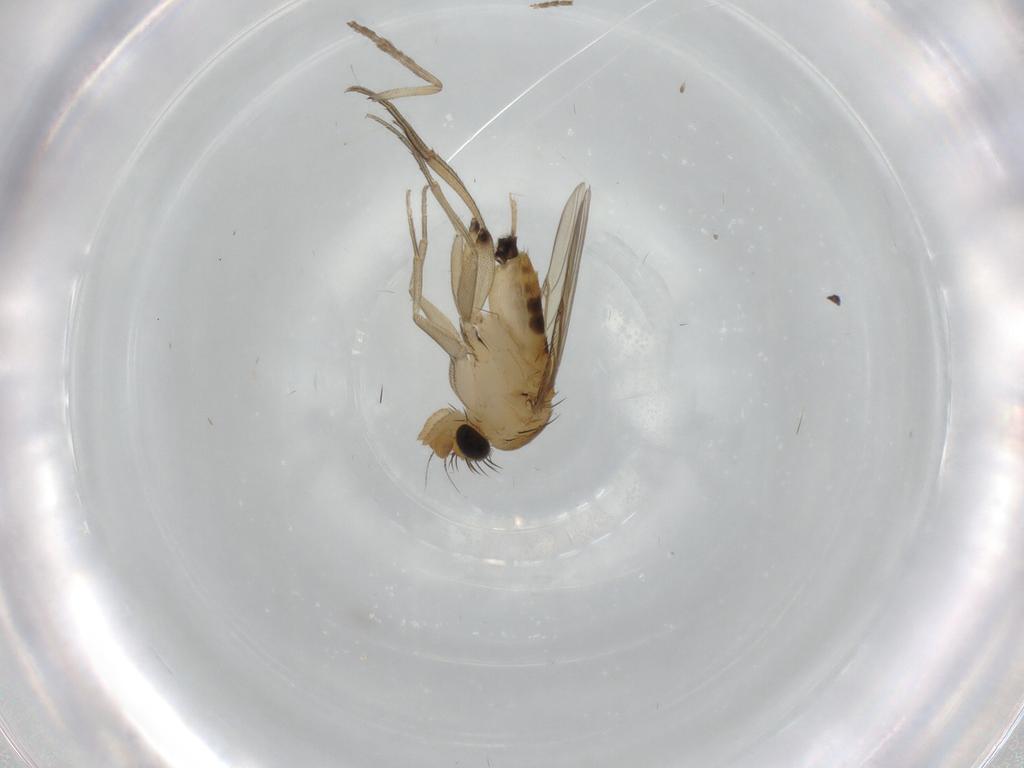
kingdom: Animalia
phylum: Arthropoda
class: Insecta
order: Diptera
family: Phoridae
